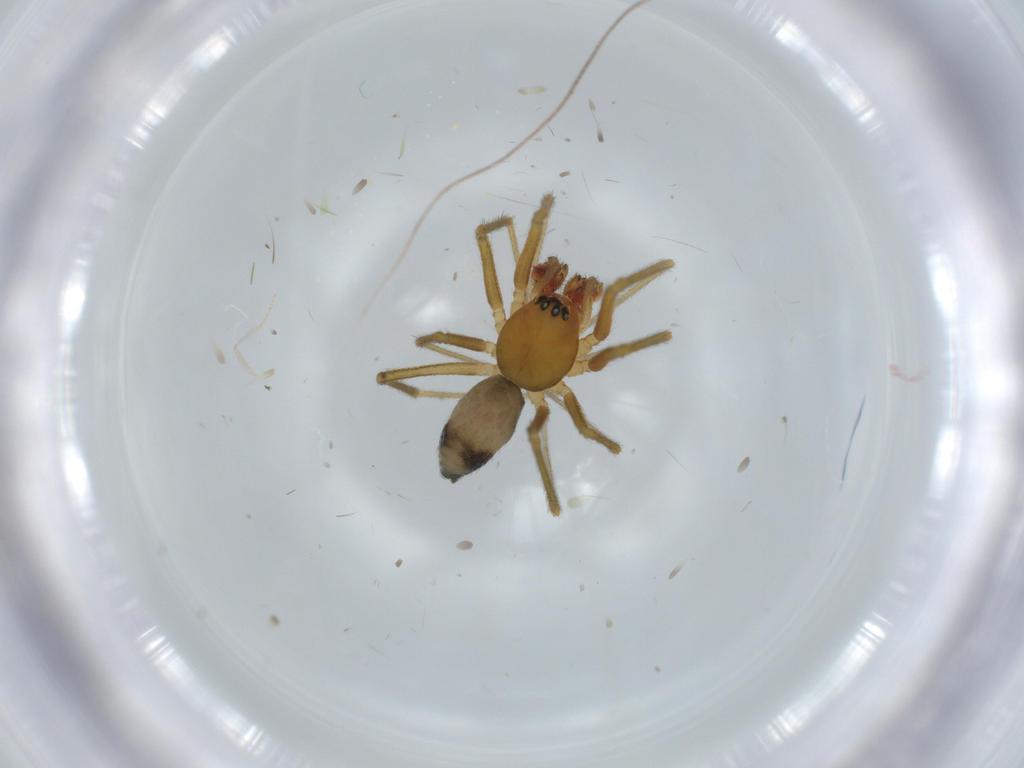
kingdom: Animalia
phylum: Arthropoda
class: Arachnida
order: Araneae
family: Linyphiidae
